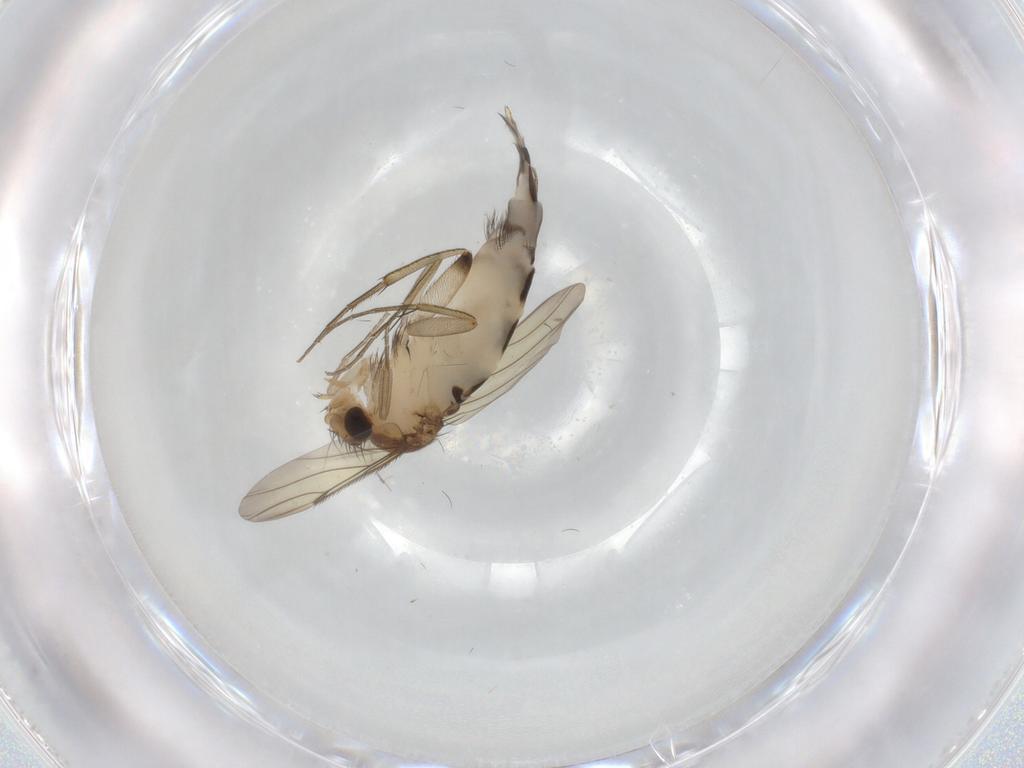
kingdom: Animalia
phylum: Arthropoda
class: Insecta
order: Diptera
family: Phoridae
